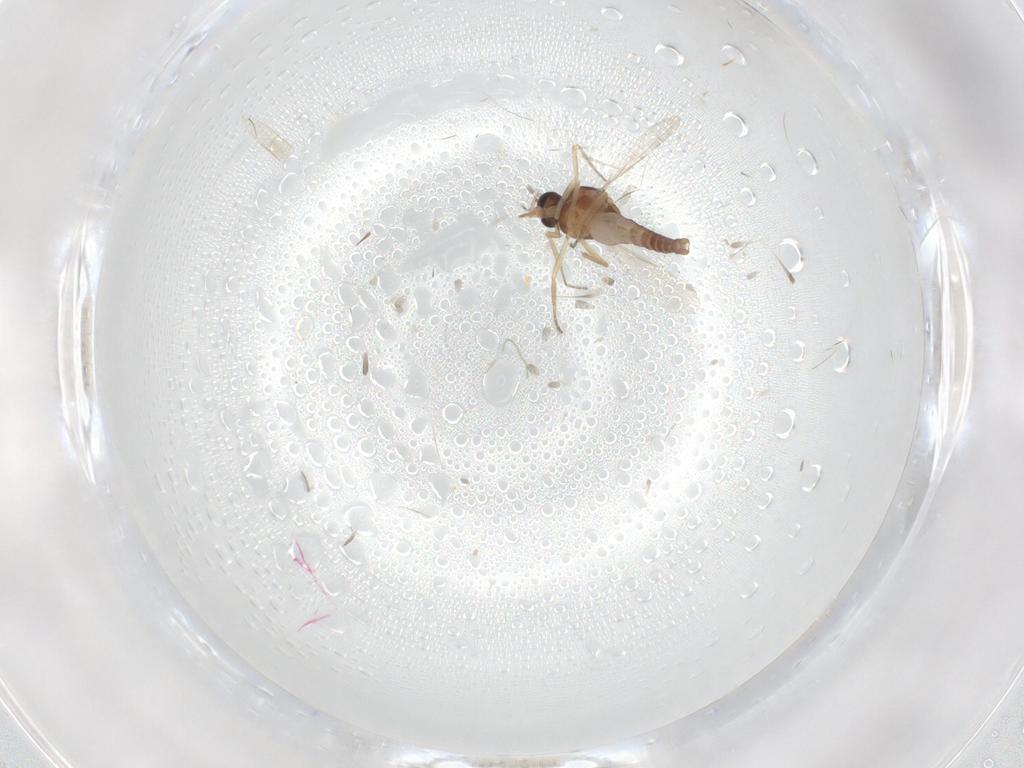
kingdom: Animalia
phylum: Arthropoda
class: Insecta
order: Diptera
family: Ceratopogonidae
